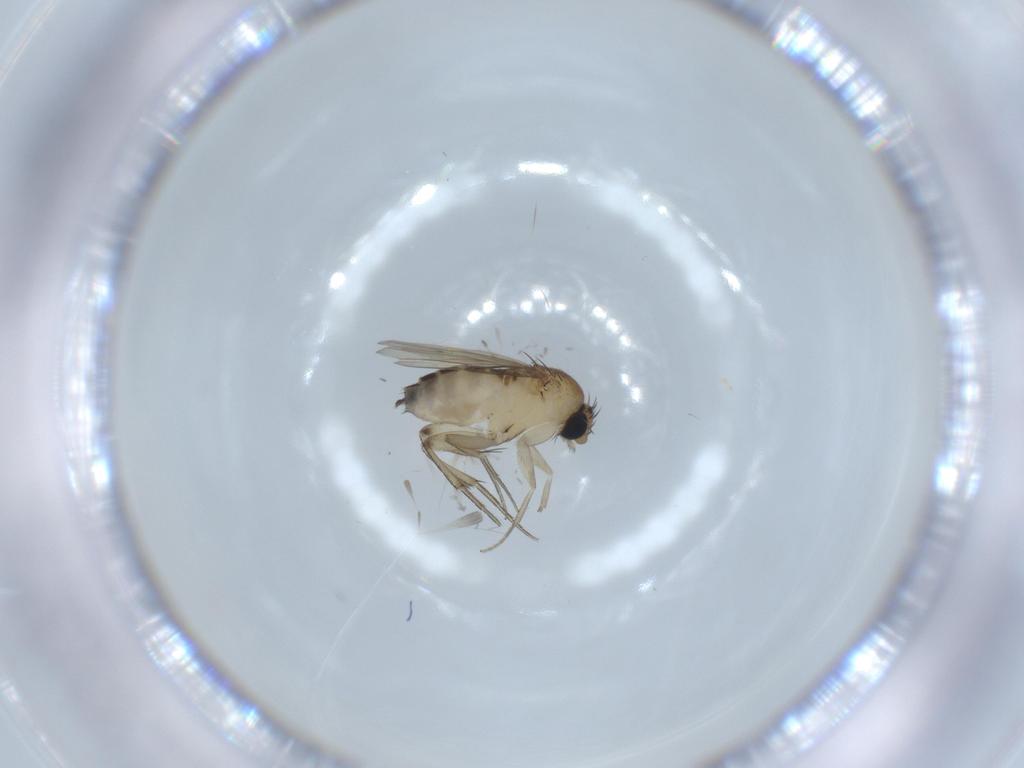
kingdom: Animalia
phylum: Arthropoda
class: Insecta
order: Diptera
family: Phoridae
